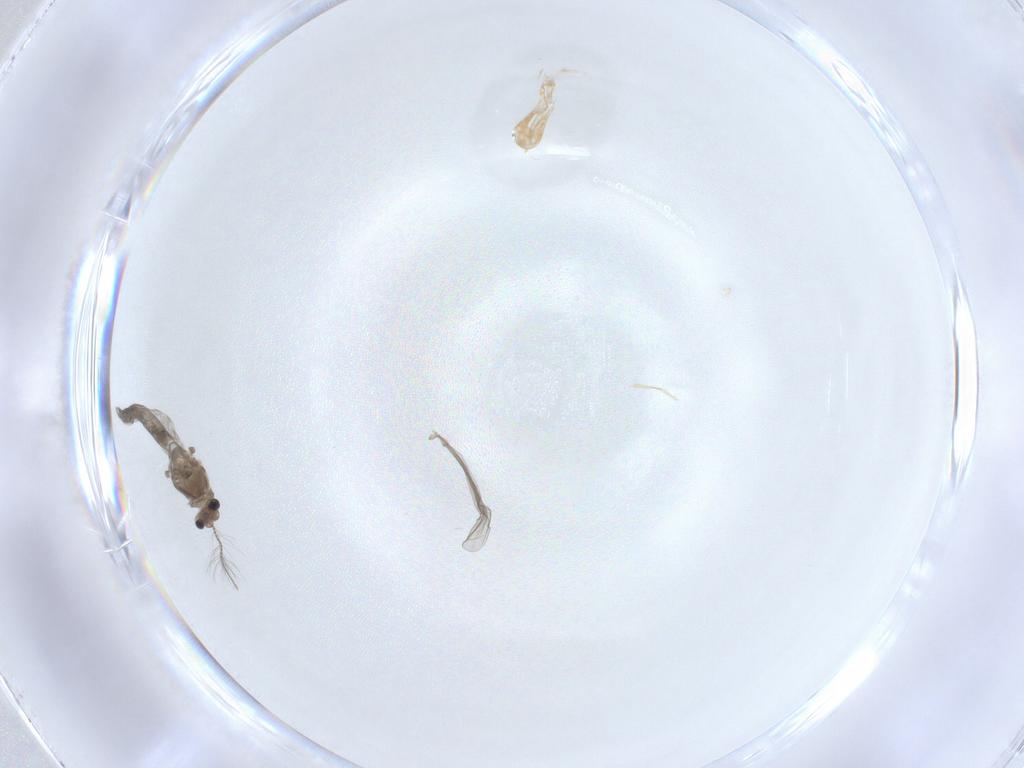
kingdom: Animalia
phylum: Arthropoda
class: Insecta
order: Diptera
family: Chironomidae
